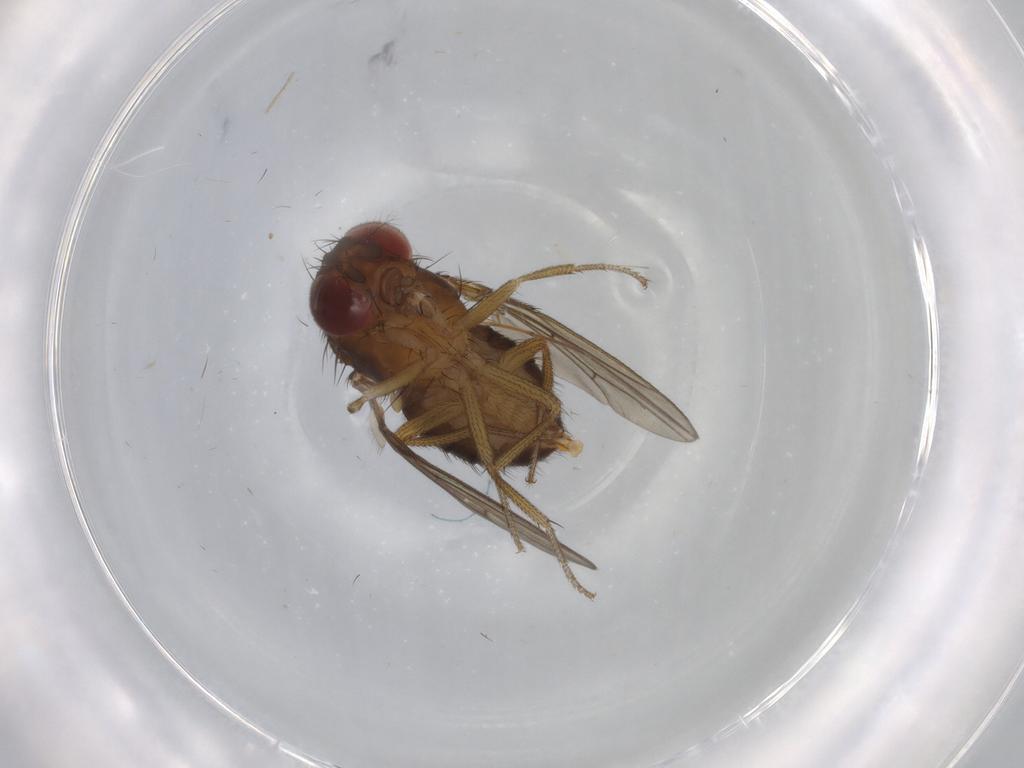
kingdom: Animalia
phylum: Arthropoda
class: Insecta
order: Diptera
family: Drosophilidae
